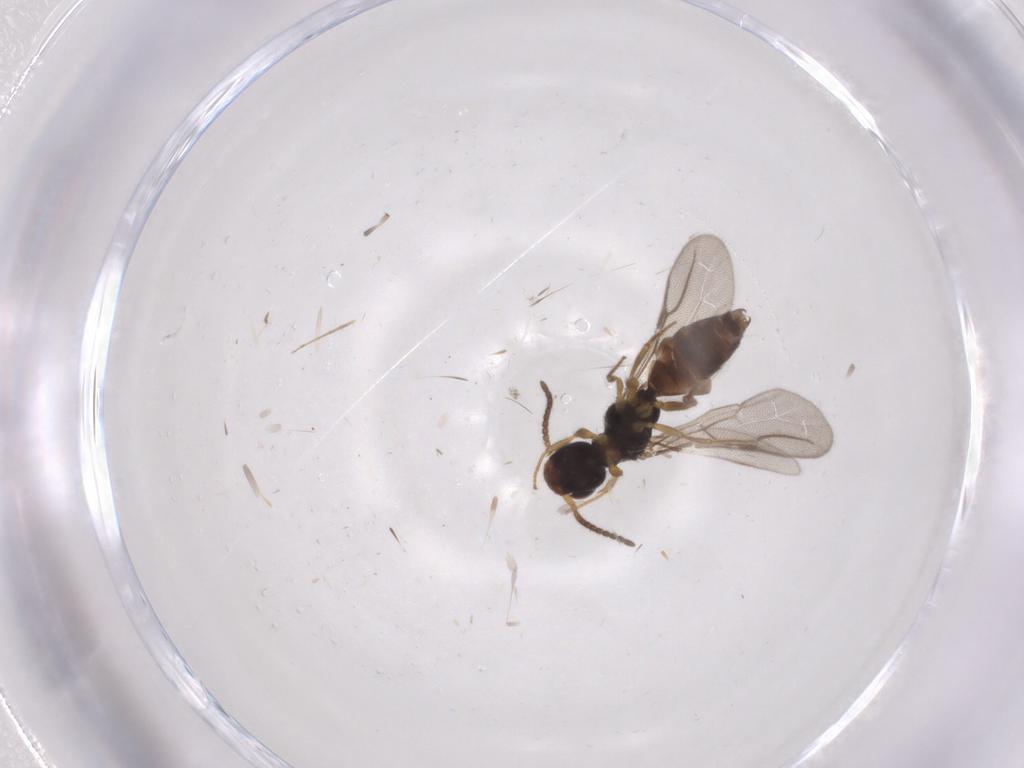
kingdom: Animalia
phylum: Arthropoda
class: Insecta
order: Hymenoptera
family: Bethylidae
